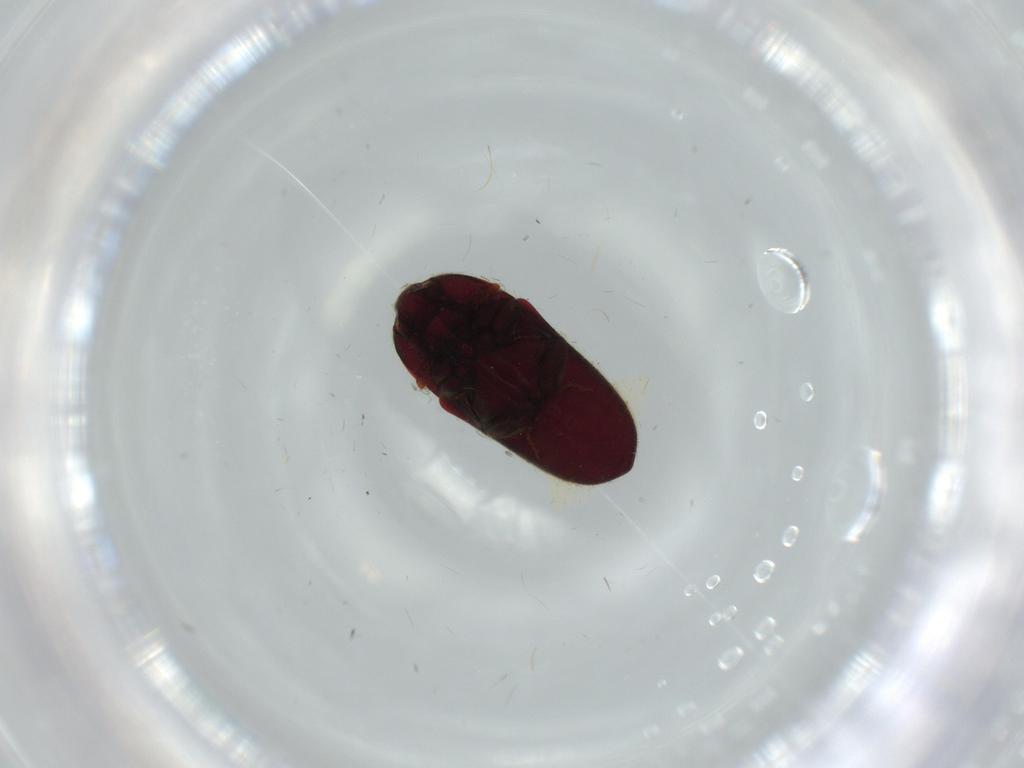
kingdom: Animalia
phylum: Arthropoda
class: Insecta
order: Coleoptera
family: Throscidae
